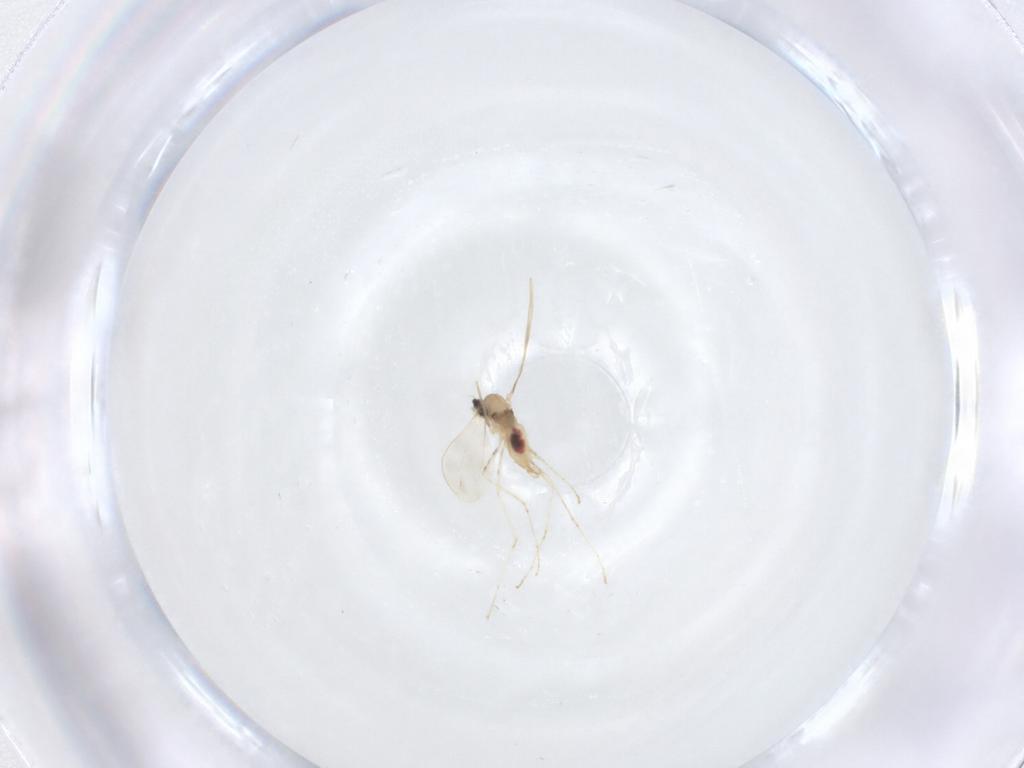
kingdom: Animalia
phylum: Arthropoda
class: Insecta
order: Diptera
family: Cecidomyiidae
